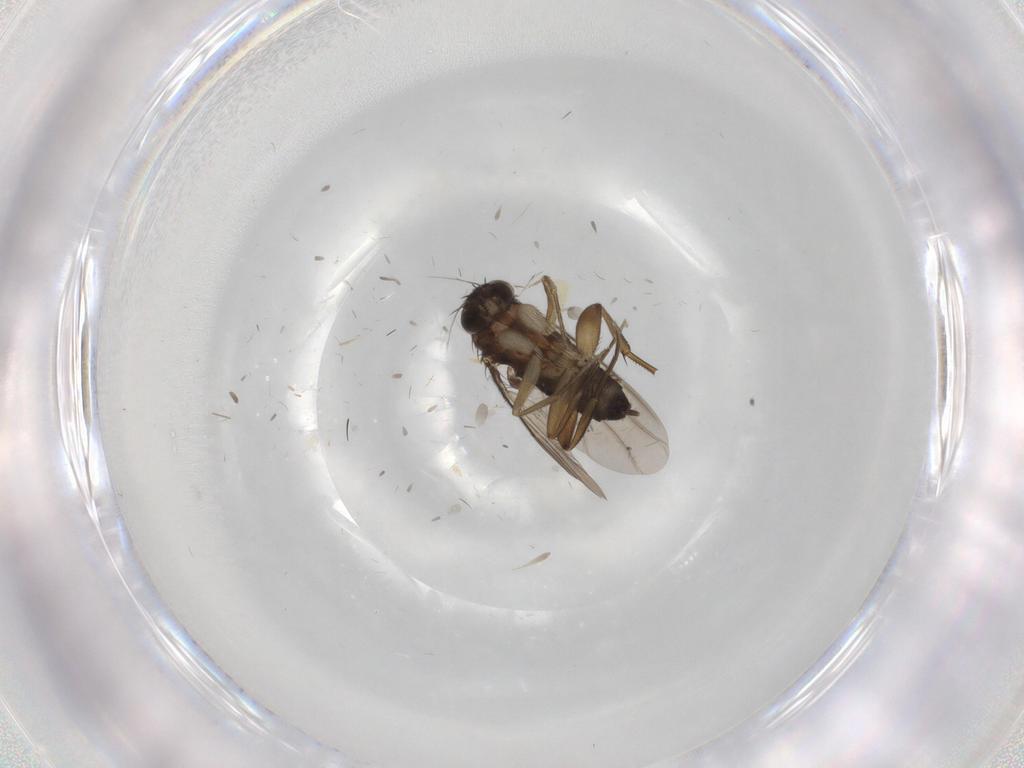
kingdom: Animalia
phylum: Arthropoda
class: Insecta
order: Diptera
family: Phoridae
